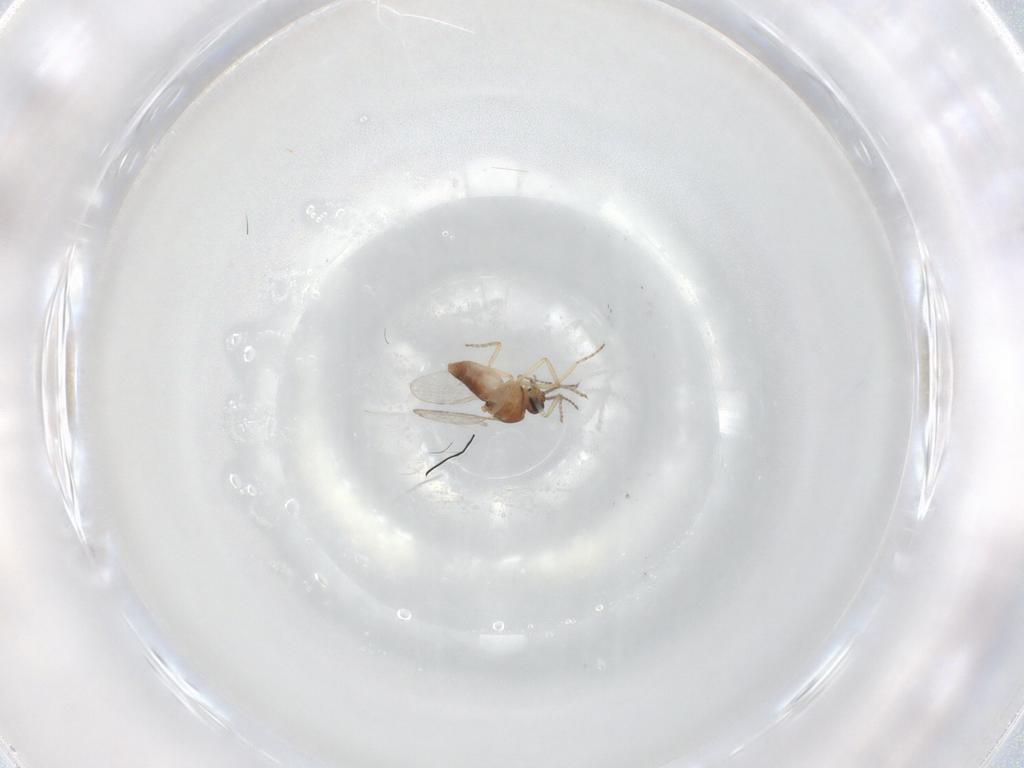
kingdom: Animalia
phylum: Arthropoda
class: Insecta
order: Diptera
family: Ceratopogonidae
